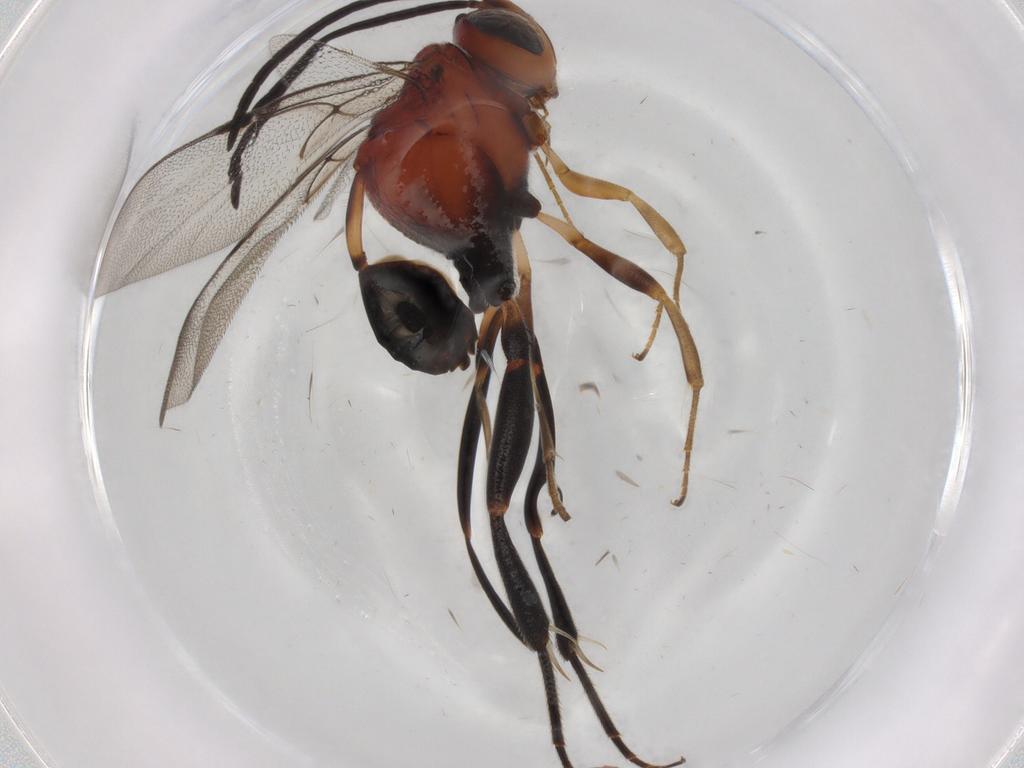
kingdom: Animalia
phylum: Arthropoda
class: Insecta
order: Hymenoptera
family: Evaniidae
